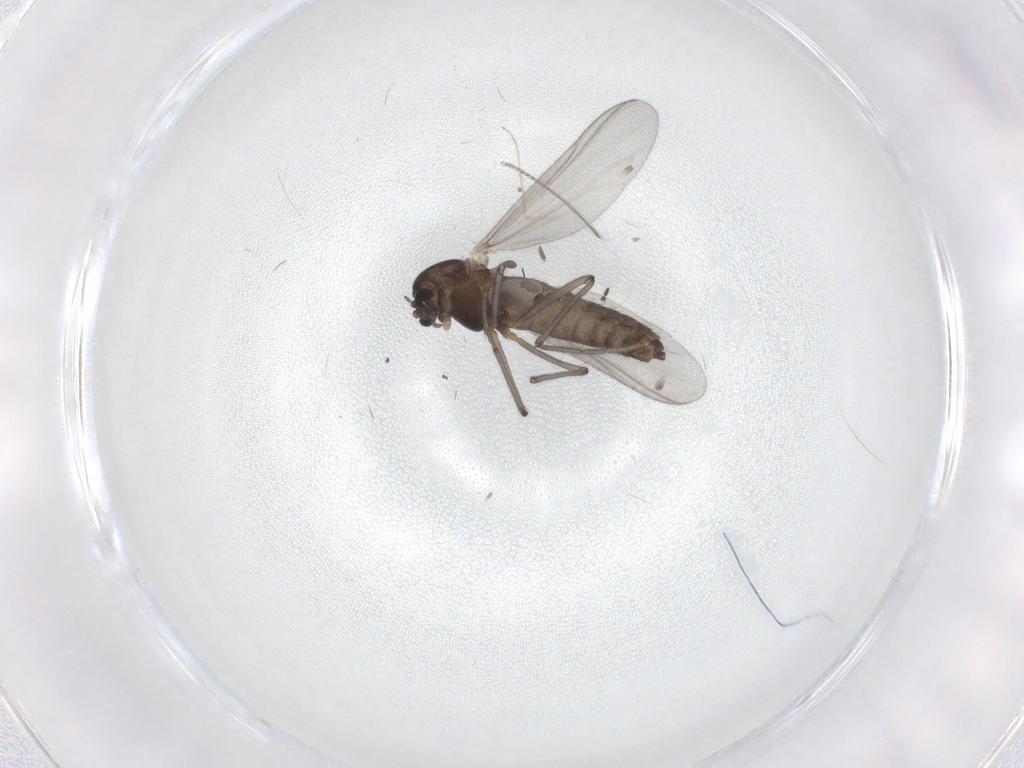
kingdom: Animalia
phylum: Arthropoda
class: Insecta
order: Diptera
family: Chironomidae
